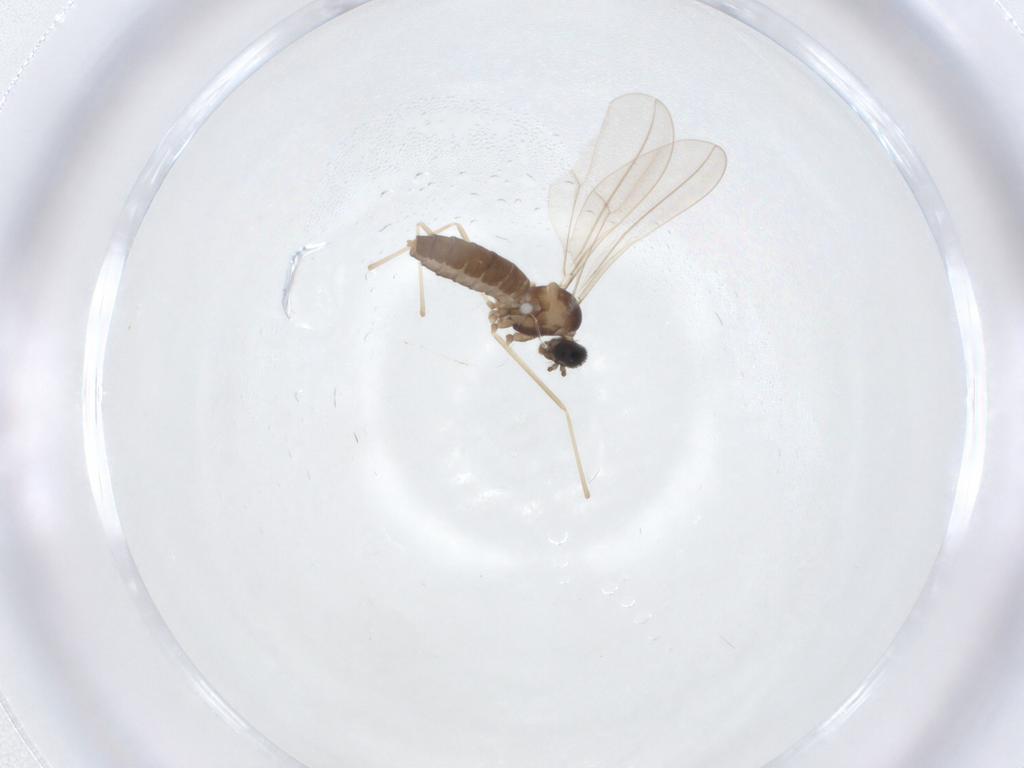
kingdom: Animalia
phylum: Arthropoda
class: Insecta
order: Diptera
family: Cecidomyiidae
